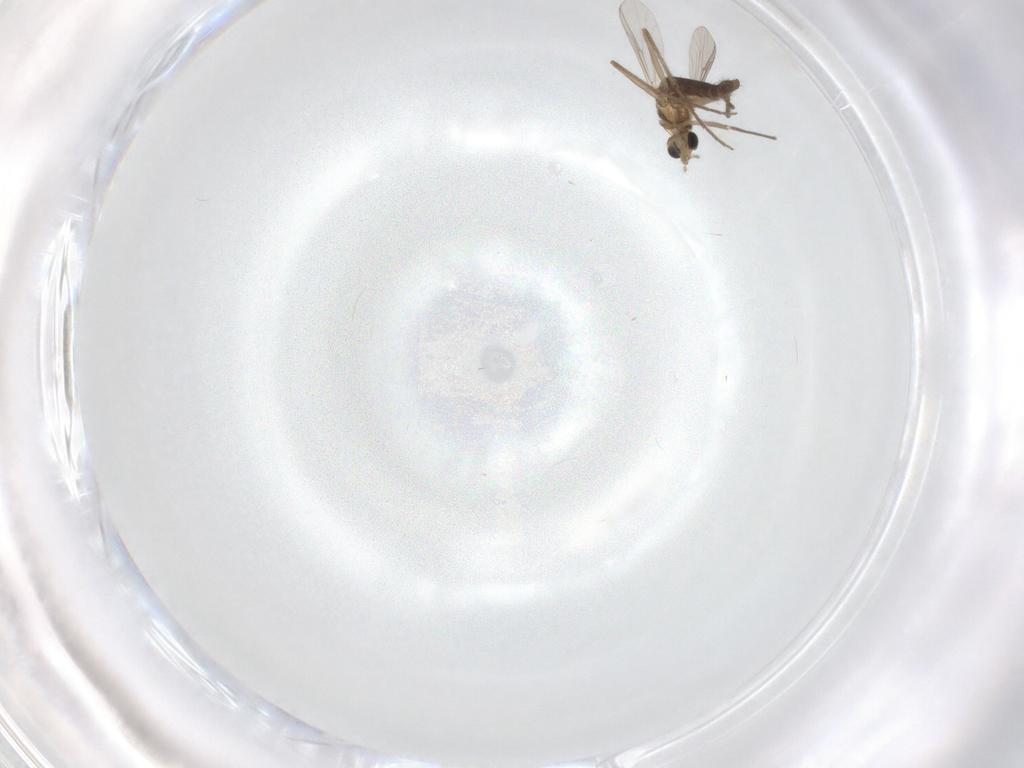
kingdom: Animalia
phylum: Arthropoda
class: Insecta
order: Diptera
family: Chironomidae
